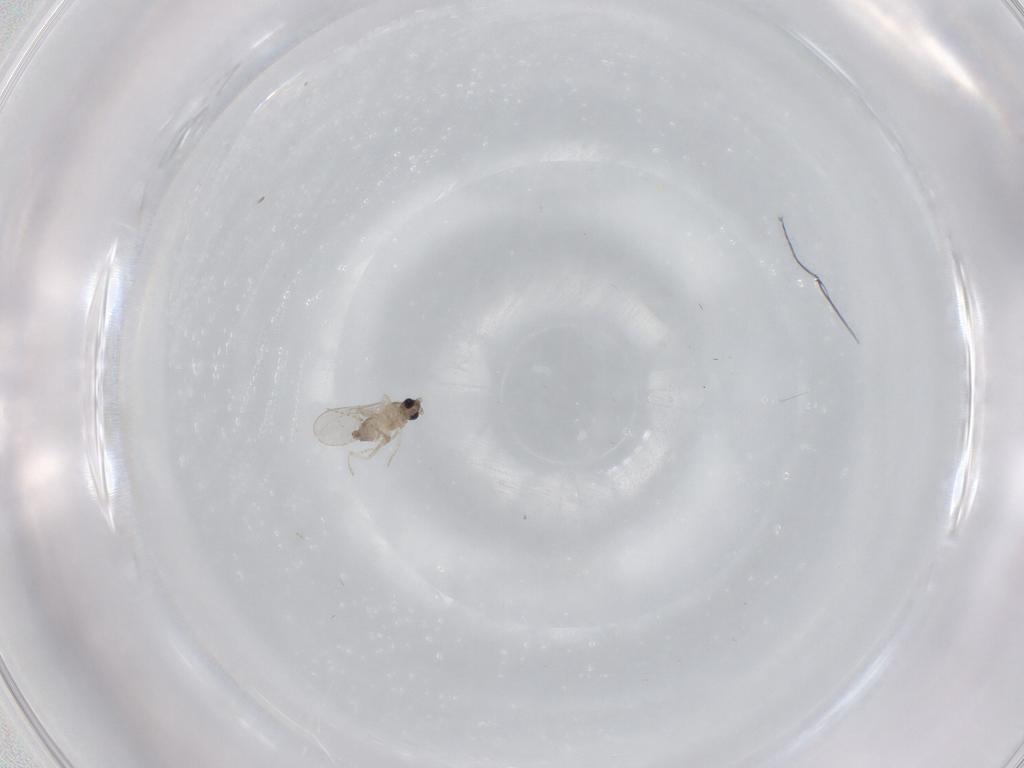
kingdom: Animalia
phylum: Arthropoda
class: Insecta
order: Diptera
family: Cecidomyiidae
